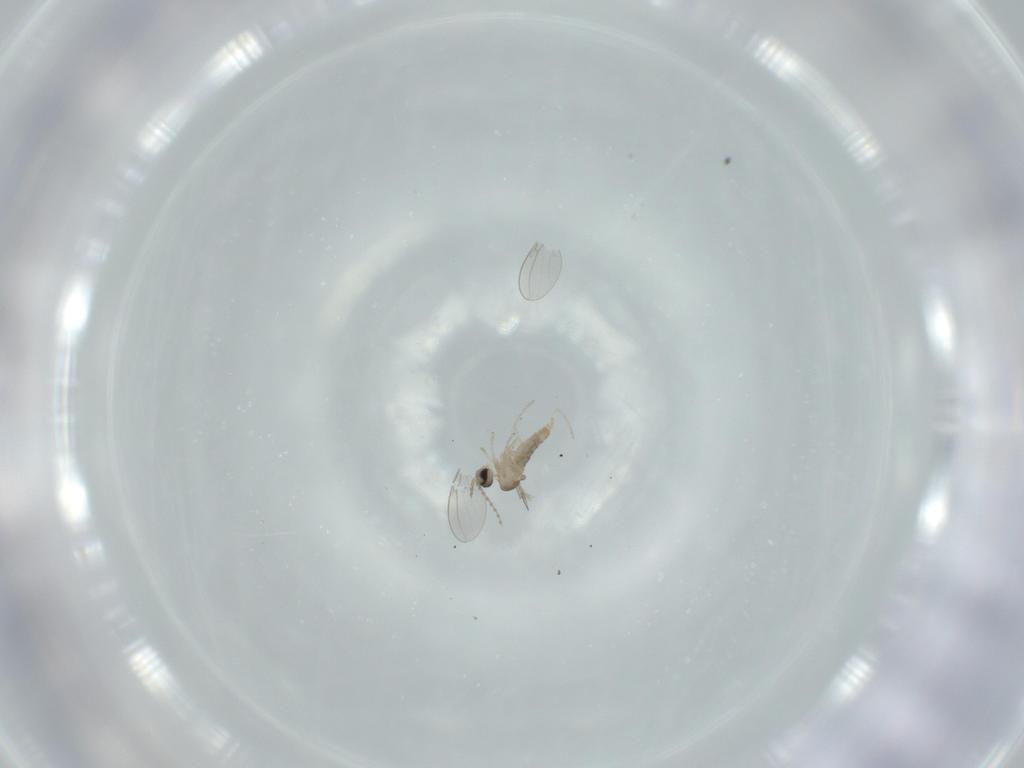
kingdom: Animalia
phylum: Arthropoda
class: Insecta
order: Diptera
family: Cecidomyiidae
